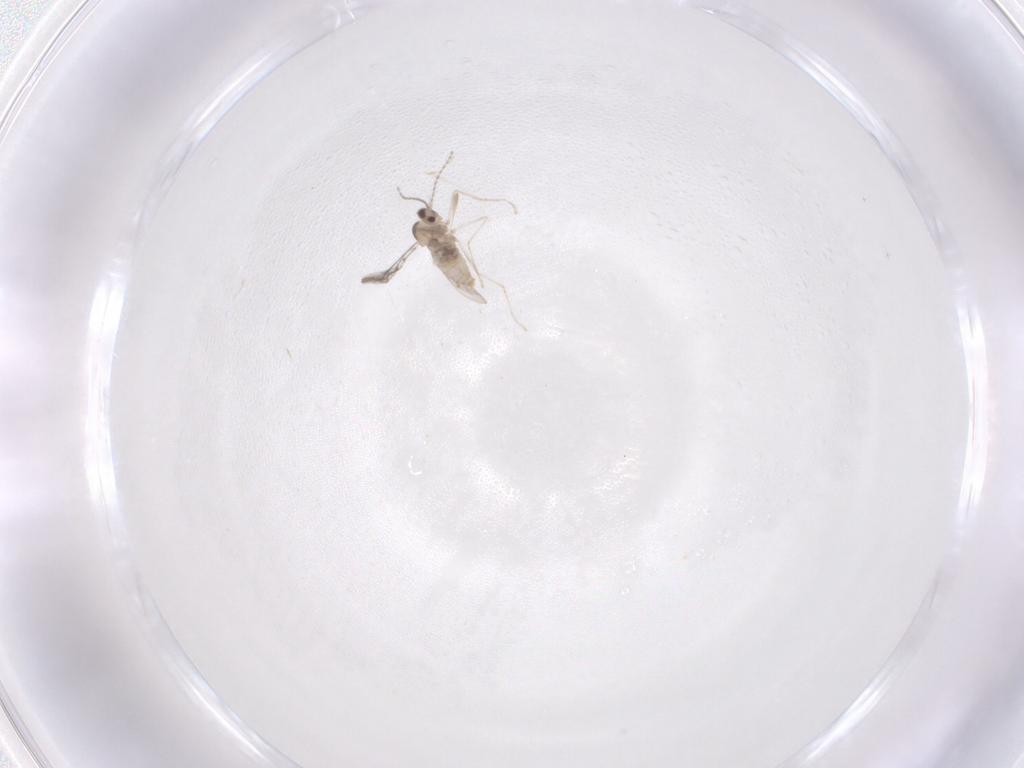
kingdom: Animalia
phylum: Arthropoda
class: Insecta
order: Diptera
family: Cecidomyiidae
